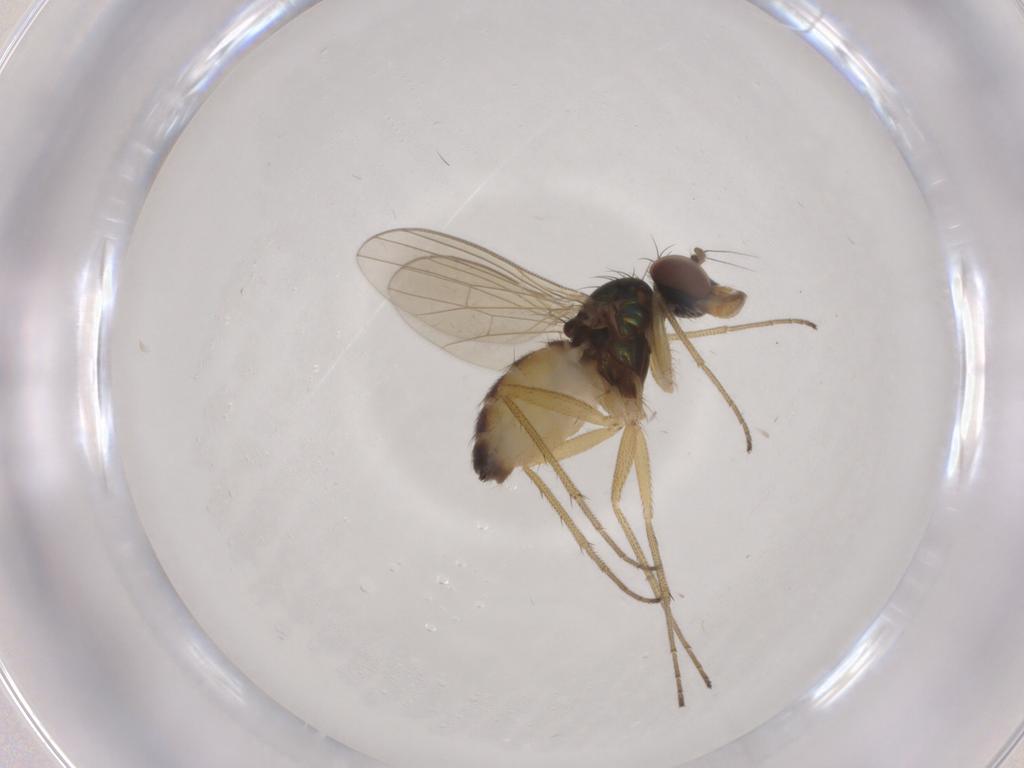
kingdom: Animalia
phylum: Arthropoda
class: Insecta
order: Diptera
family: Dolichopodidae
